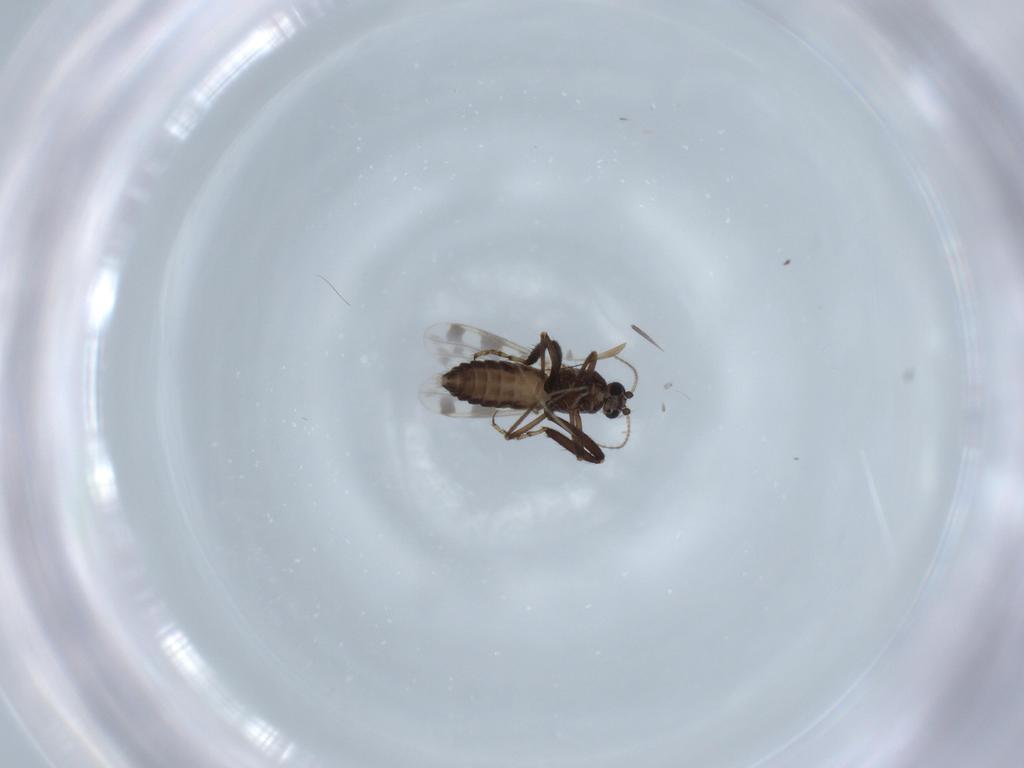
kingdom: Animalia
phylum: Arthropoda
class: Insecta
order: Diptera
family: Ceratopogonidae
